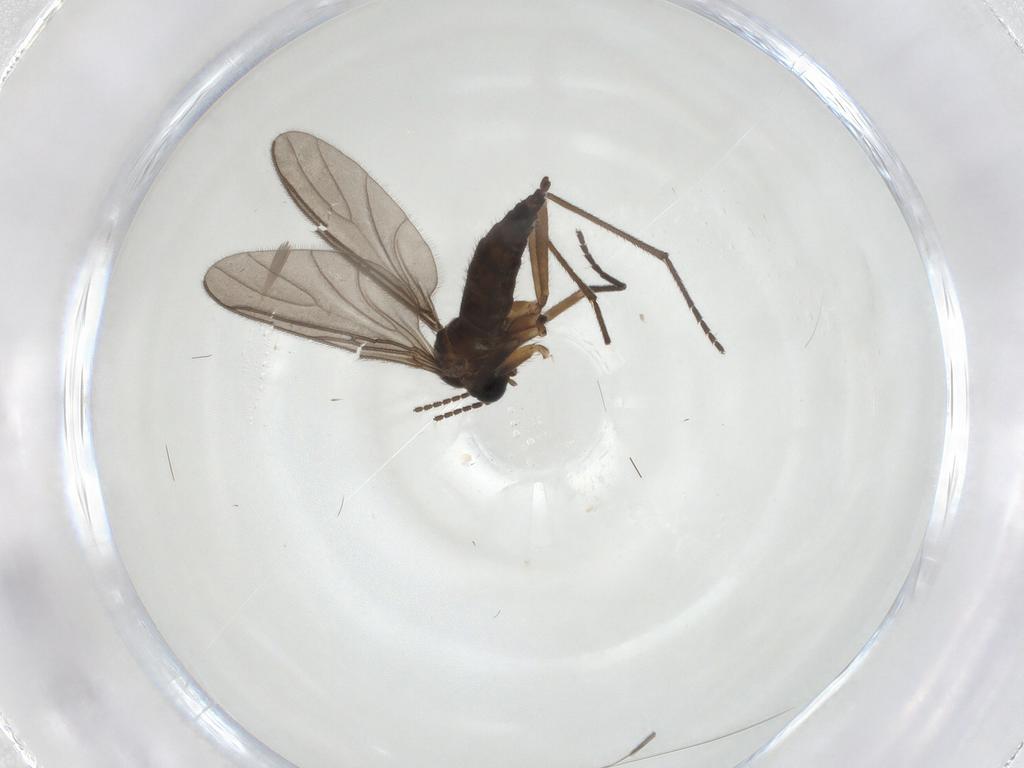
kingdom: Animalia
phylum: Arthropoda
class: Insecta
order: Diptera
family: Sciaridae
